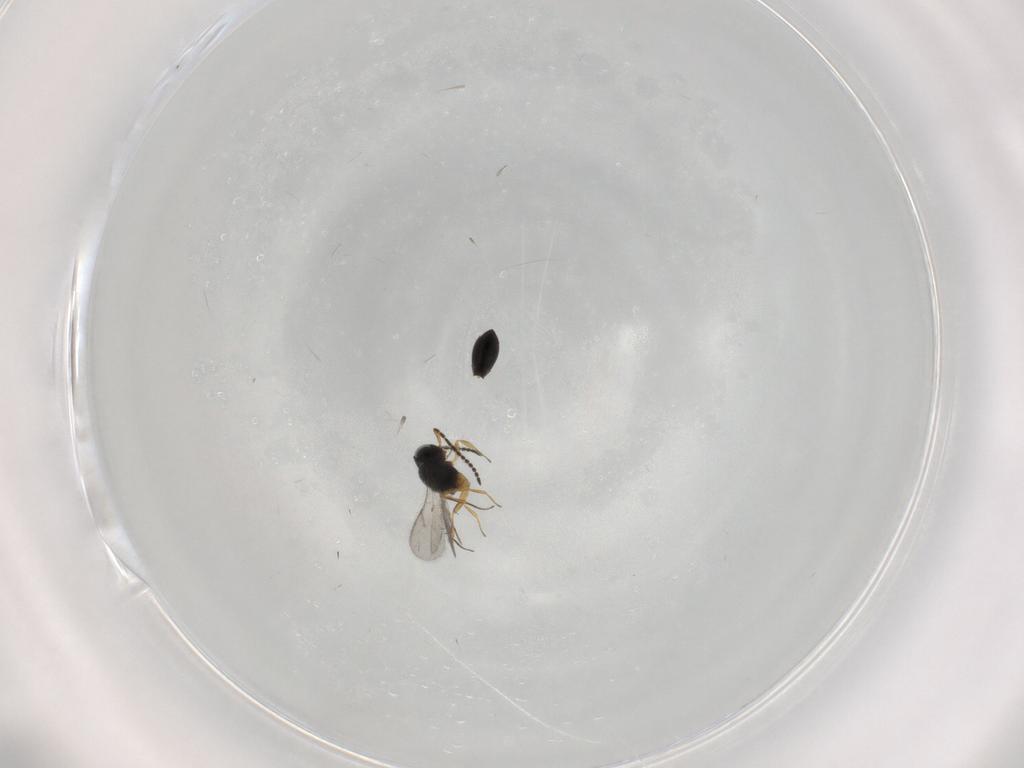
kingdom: Animalia
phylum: Arthropoda
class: Insecta
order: Hymenoptera
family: Scelionidae
